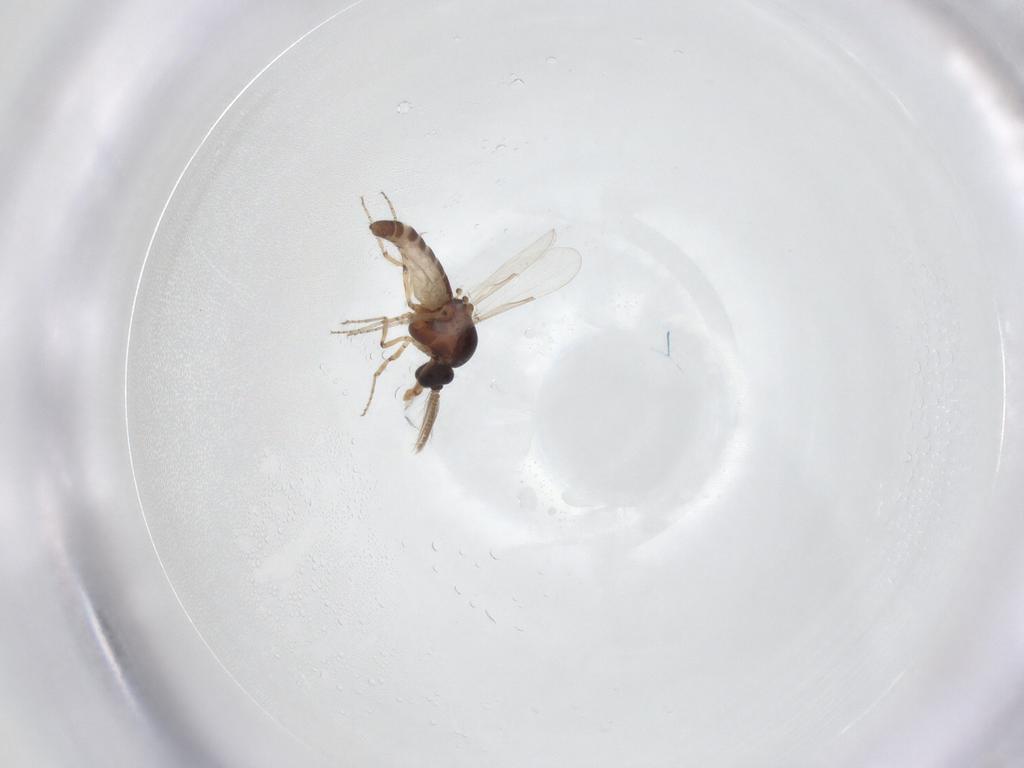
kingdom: Animalia
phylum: Arthropoda
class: Insecta
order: Diptera
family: Ceratopogonidae
